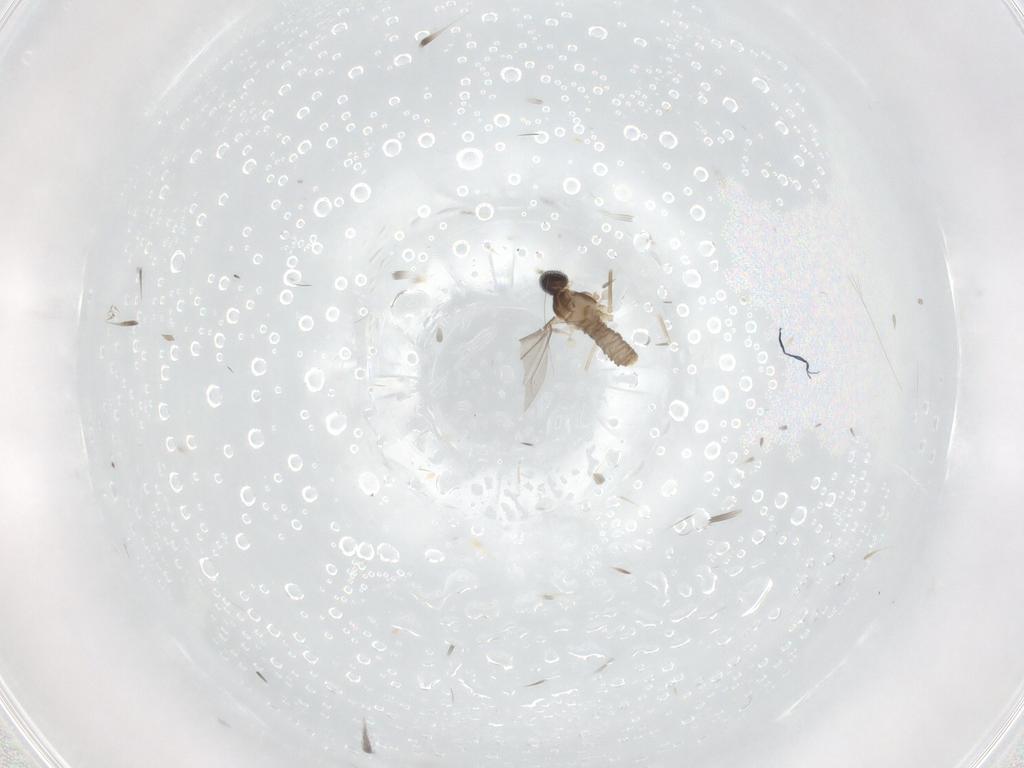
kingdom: Animalia
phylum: Arthropoda
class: Insecta
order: Diptera
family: Cecidomyiidae
